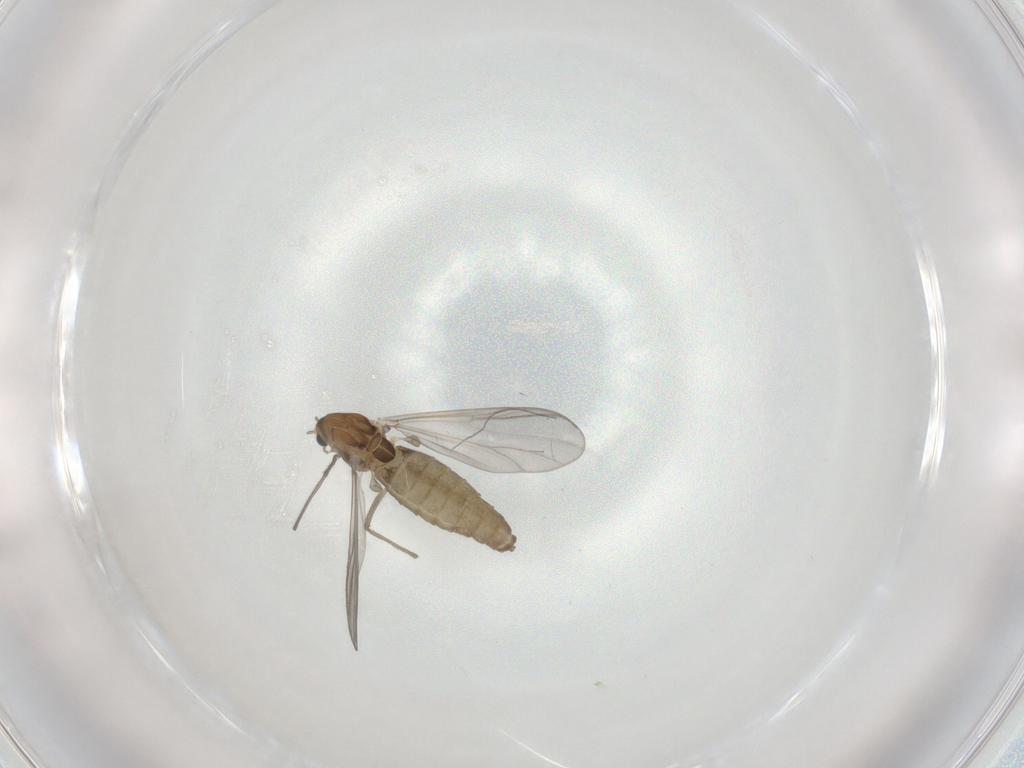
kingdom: Animalia
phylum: Arthropoda
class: Insecta
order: Diptera
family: Chironomidae
